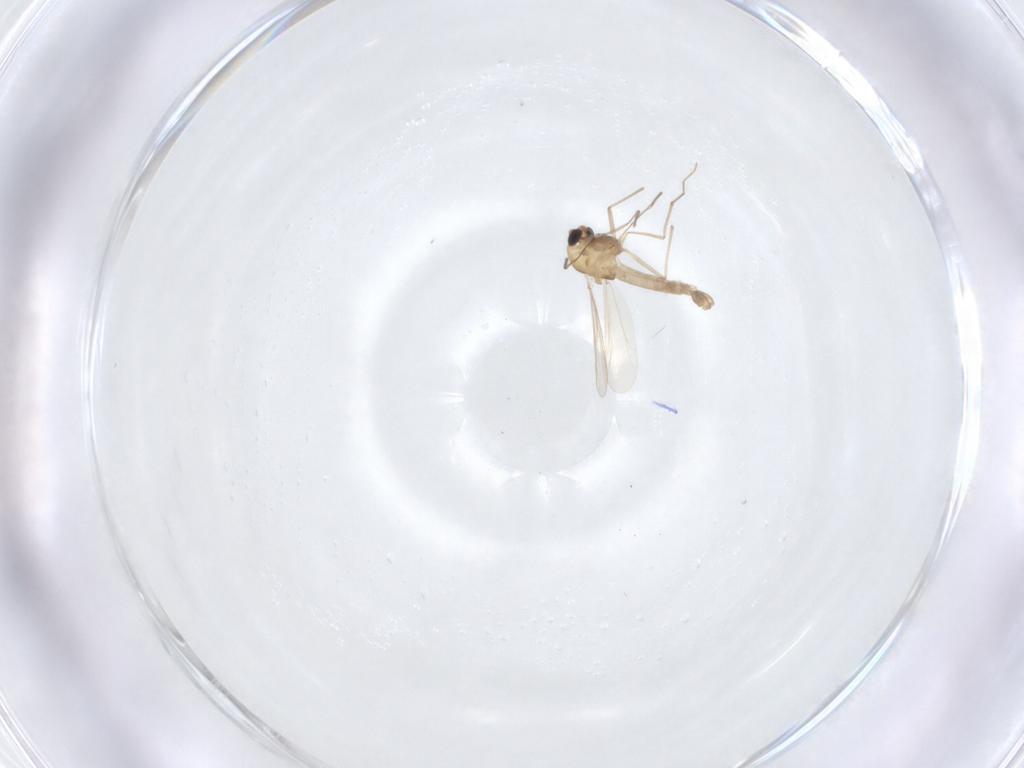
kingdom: Animalia
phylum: Arthropoda
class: Insecta
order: Diptera
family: Chironomidae
